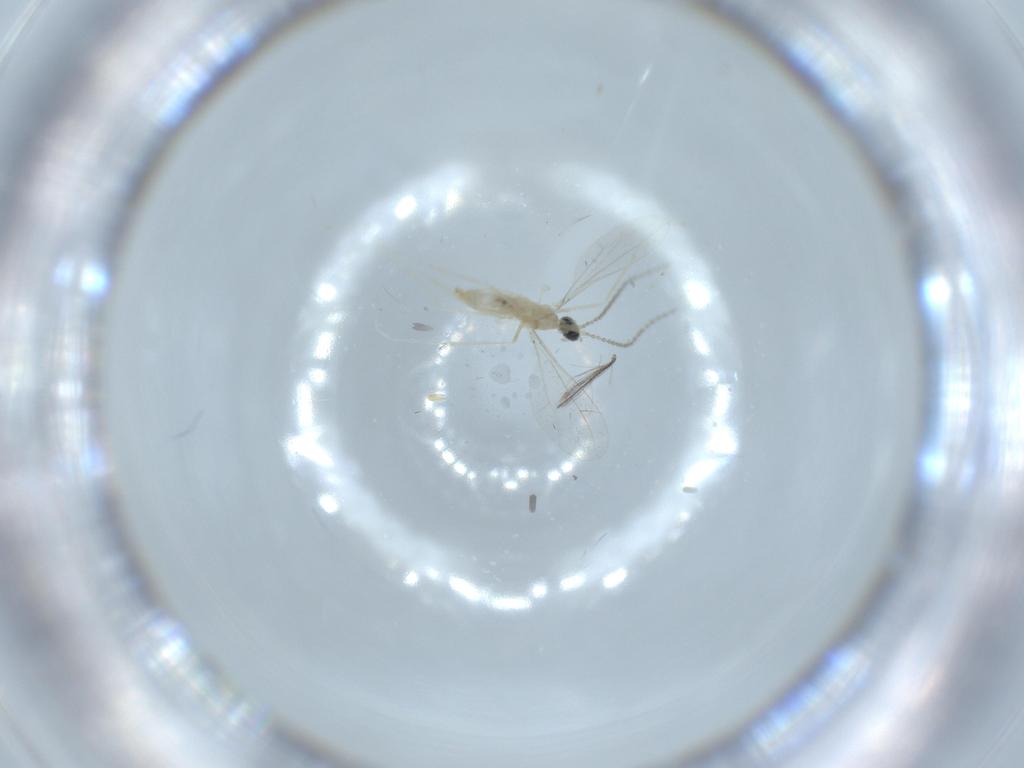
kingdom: Animalia
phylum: Arthropoda
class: Insecta
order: Diptera
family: Chironomidae
